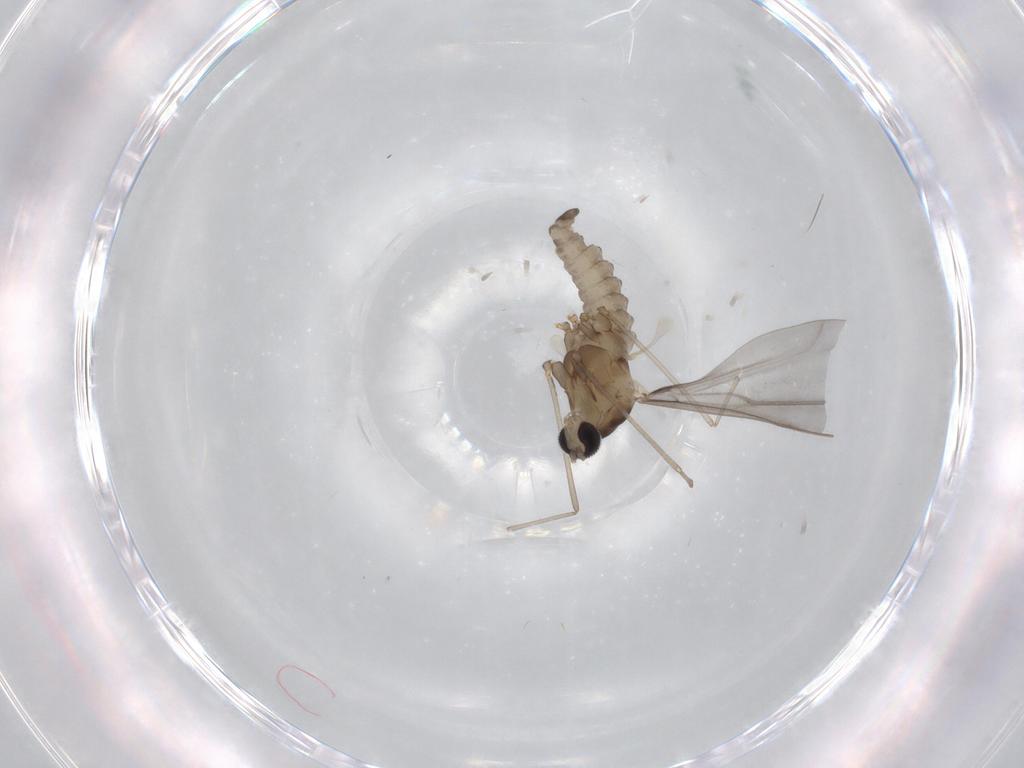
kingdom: Animalia
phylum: Arthropoda
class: Insecta
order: Diptera
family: Cecidomyiidae
